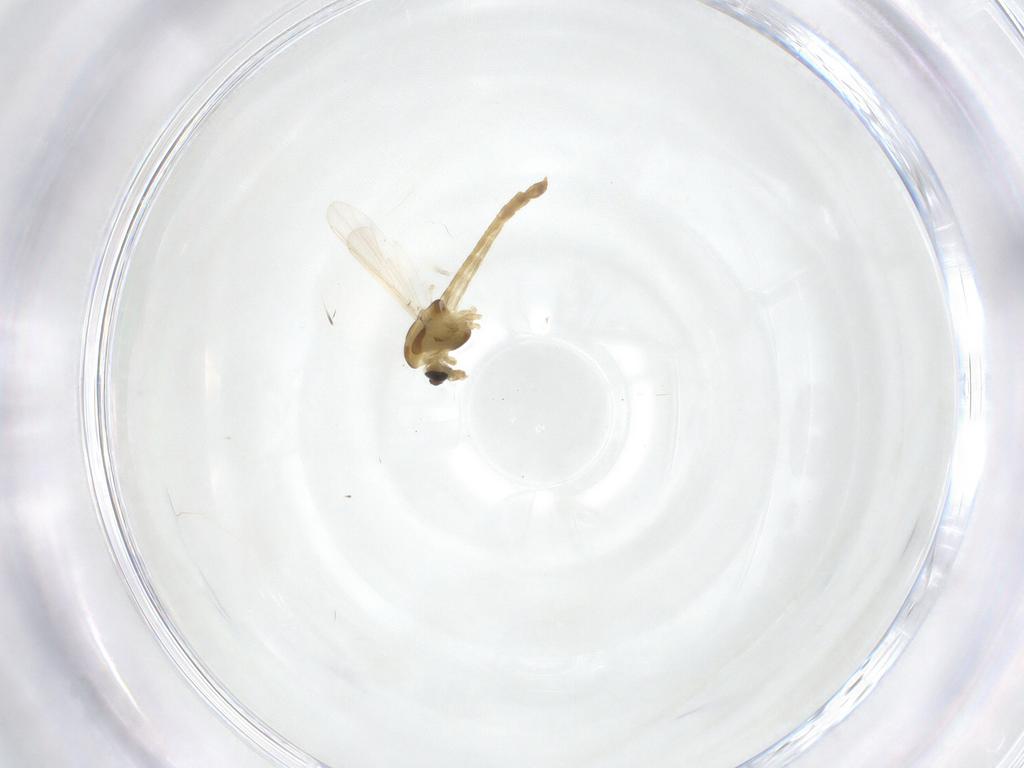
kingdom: Animalia
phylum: Arthropoda
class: Insecta
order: Diptera
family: Chironomidae
